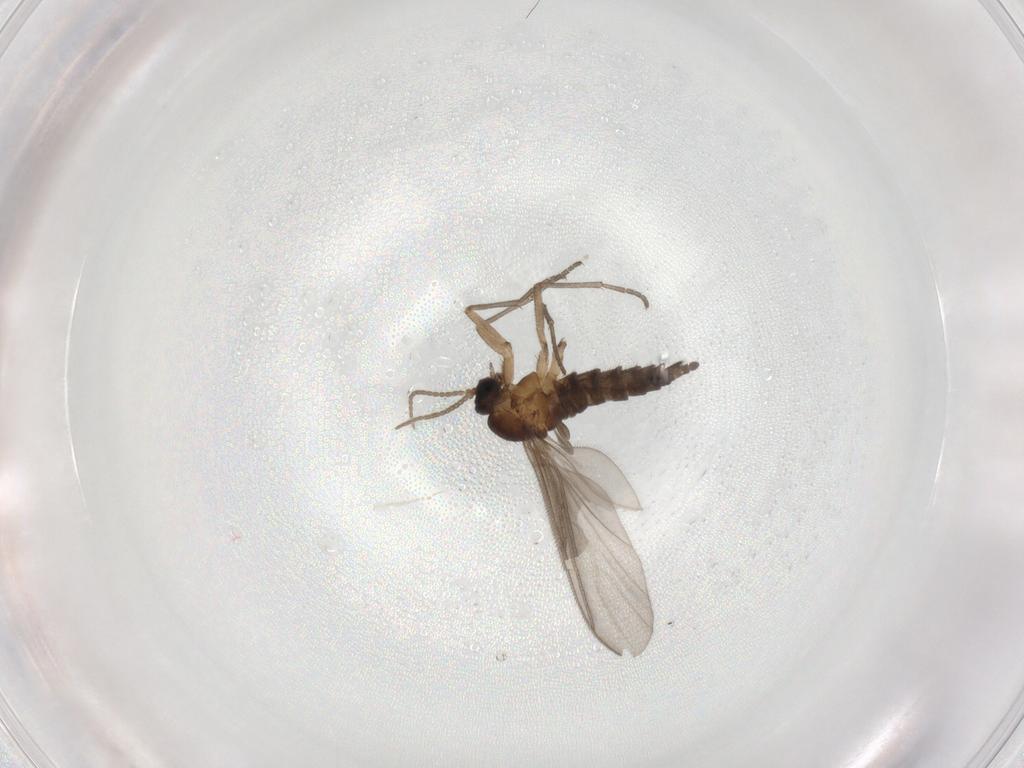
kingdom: Animalia
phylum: Arthropoda
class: Insecta
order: Diptera
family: Sciaridae
